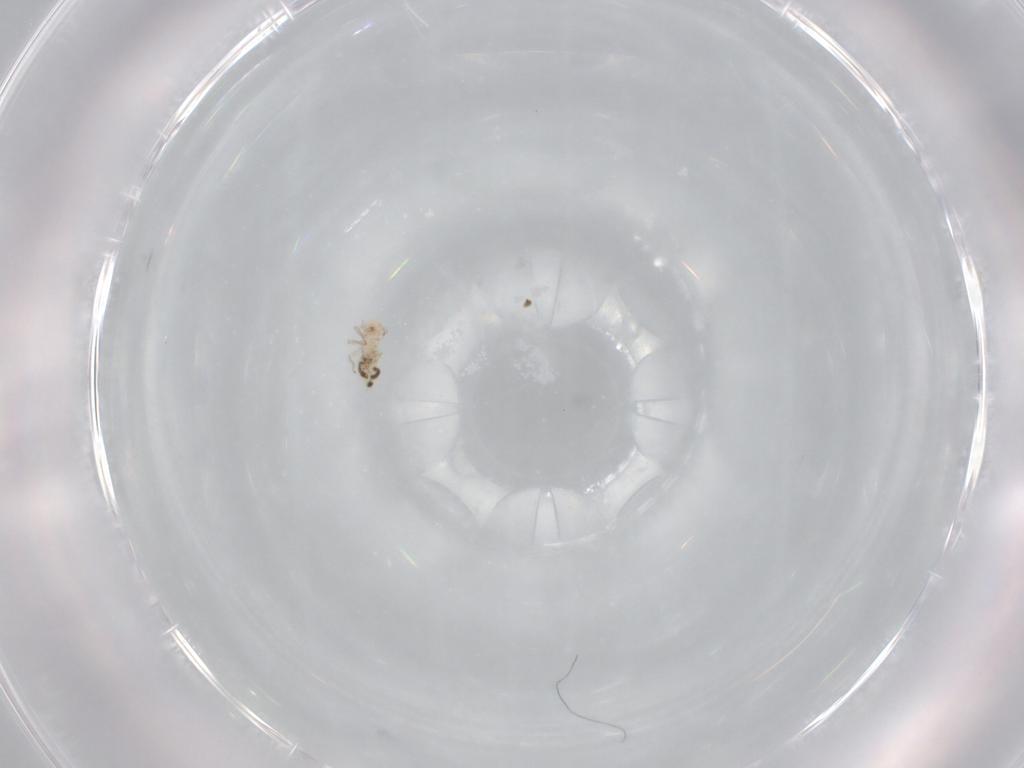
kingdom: Animalia
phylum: Arthropoda
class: Insecta
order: Psocodea
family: Peripsocidae
